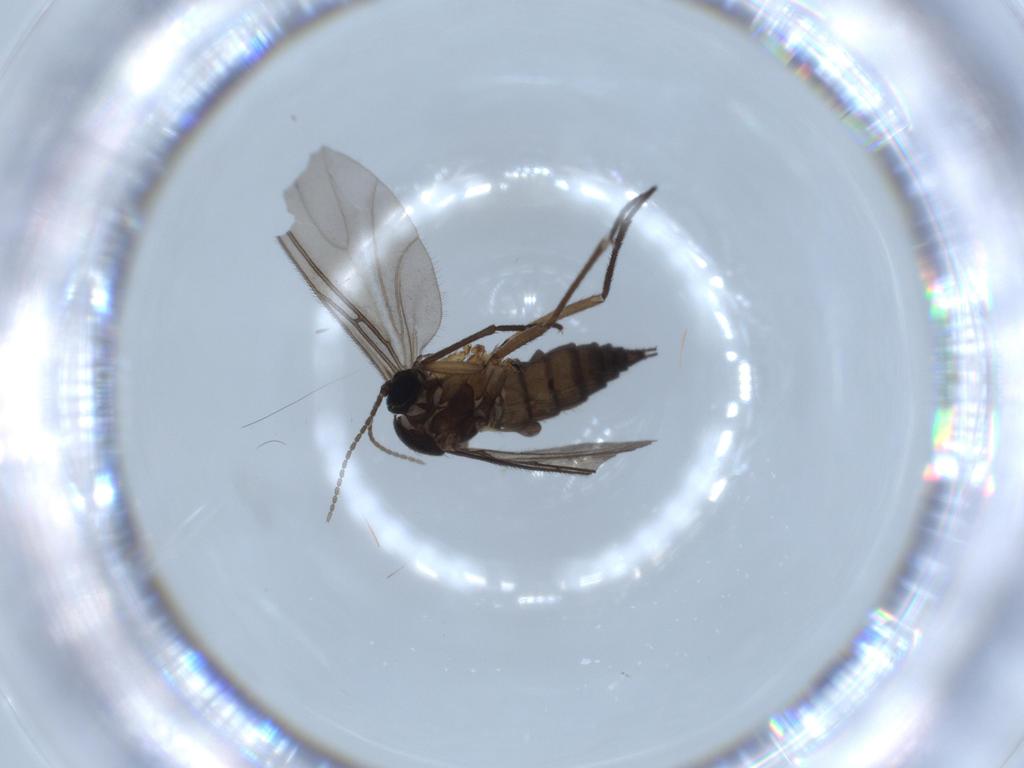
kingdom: Animalia
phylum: Arthropoda
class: Insecta
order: Diptera
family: Sciaridae
